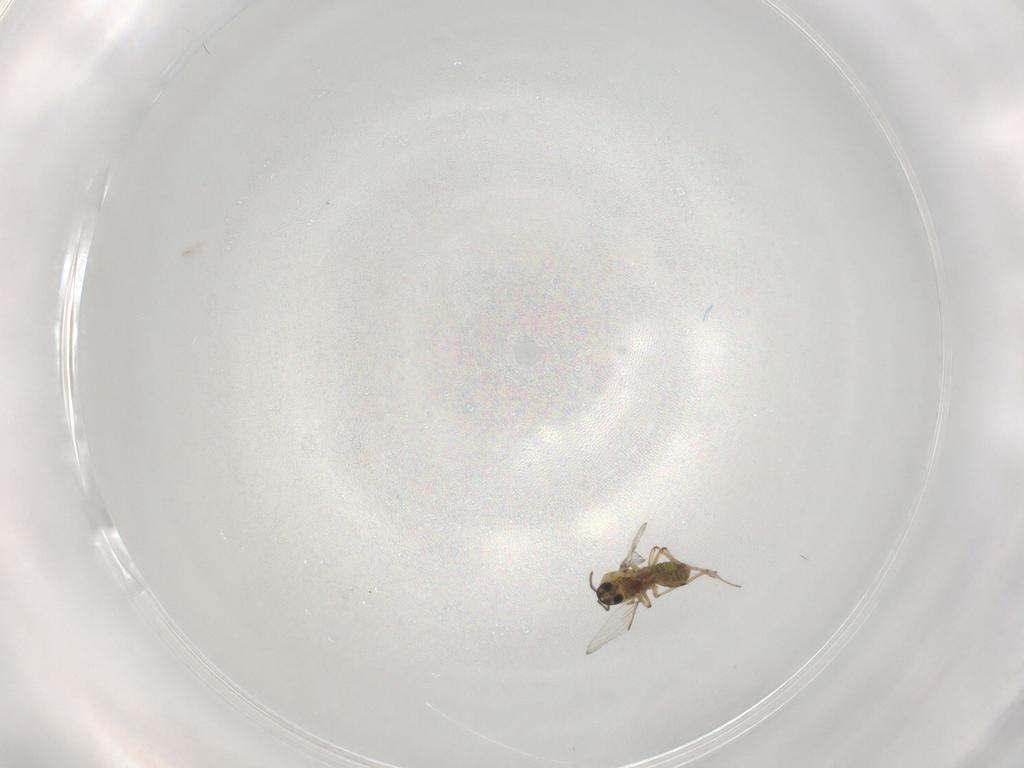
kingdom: Animalia
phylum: Arthropoda
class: Insecta
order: Diptera
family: Ceratopogonidae
